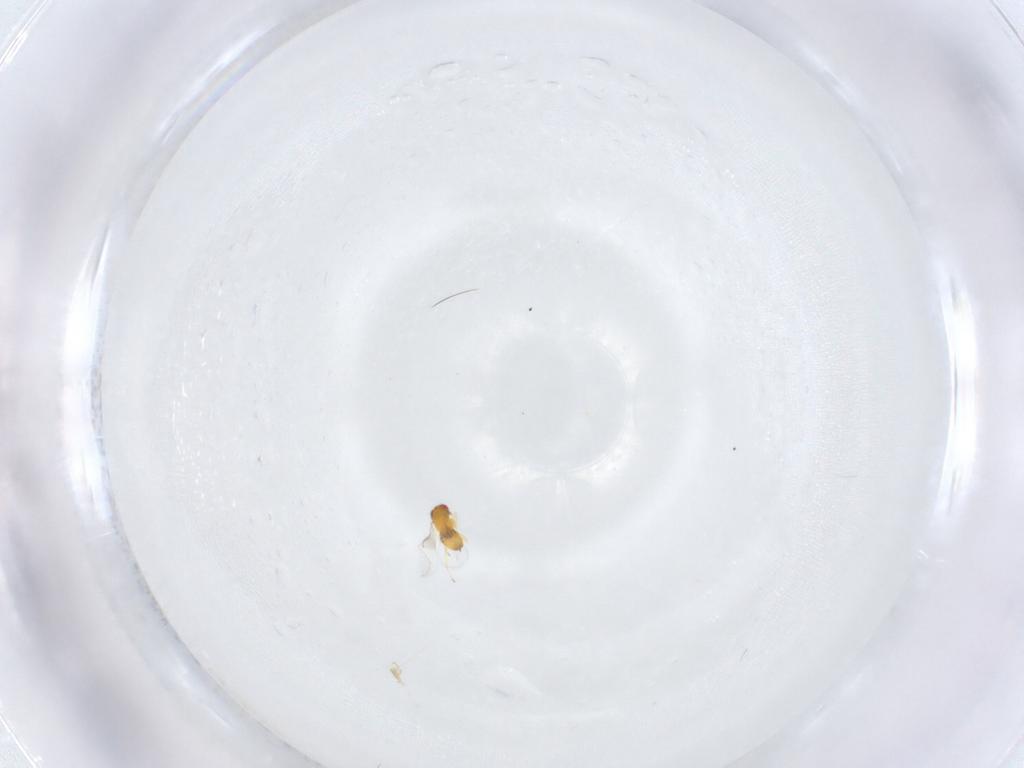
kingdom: Animalia
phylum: Arthropoda
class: Insecta
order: Hymenoptera
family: Trichogrammatidae
